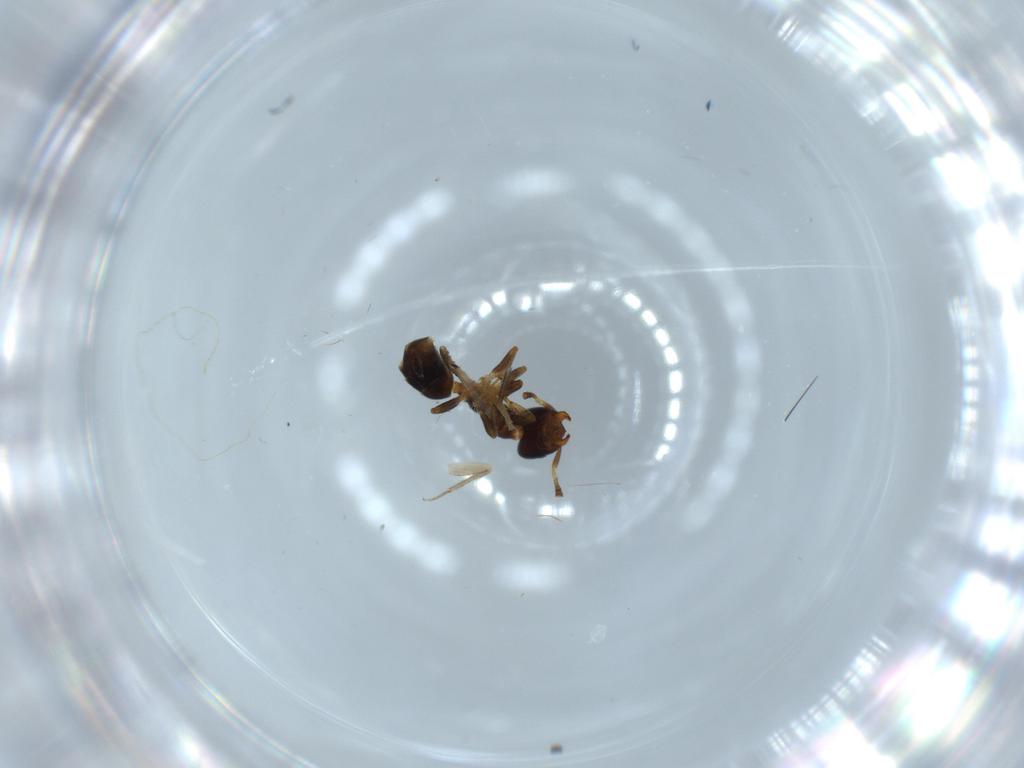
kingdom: Animalia
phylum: Arthropoda
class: Insecta
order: Hymenoptera
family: Formicidae
